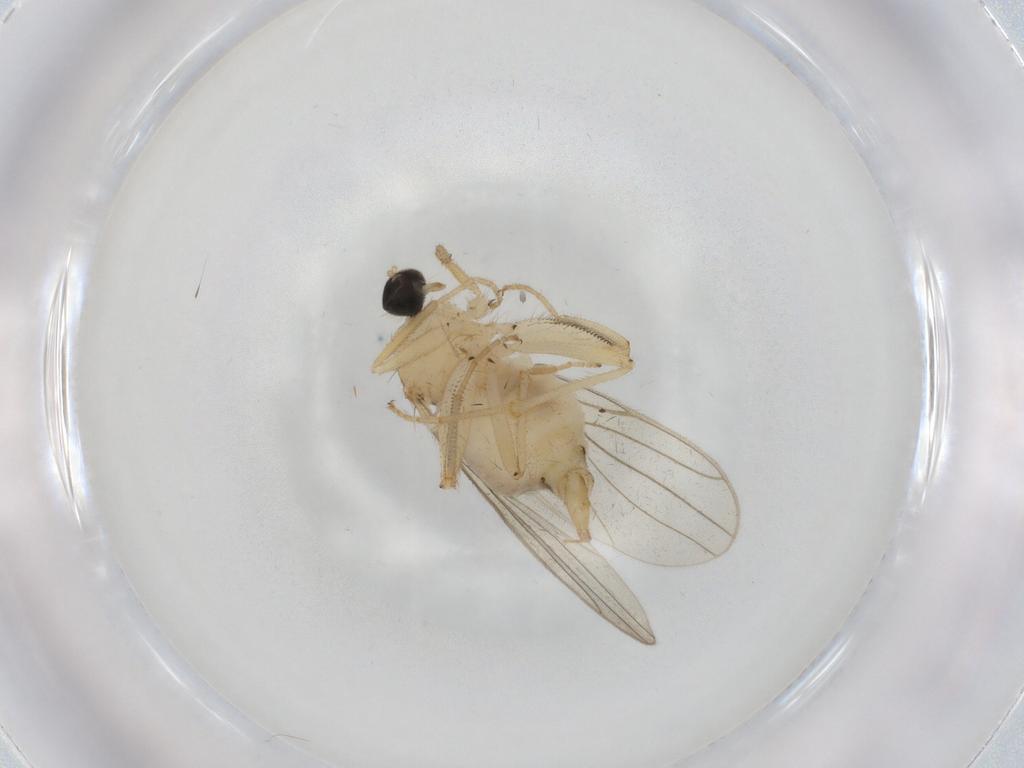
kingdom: Animalia
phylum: Arthropoda
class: Insecta
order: Diptera
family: Hybotidae
